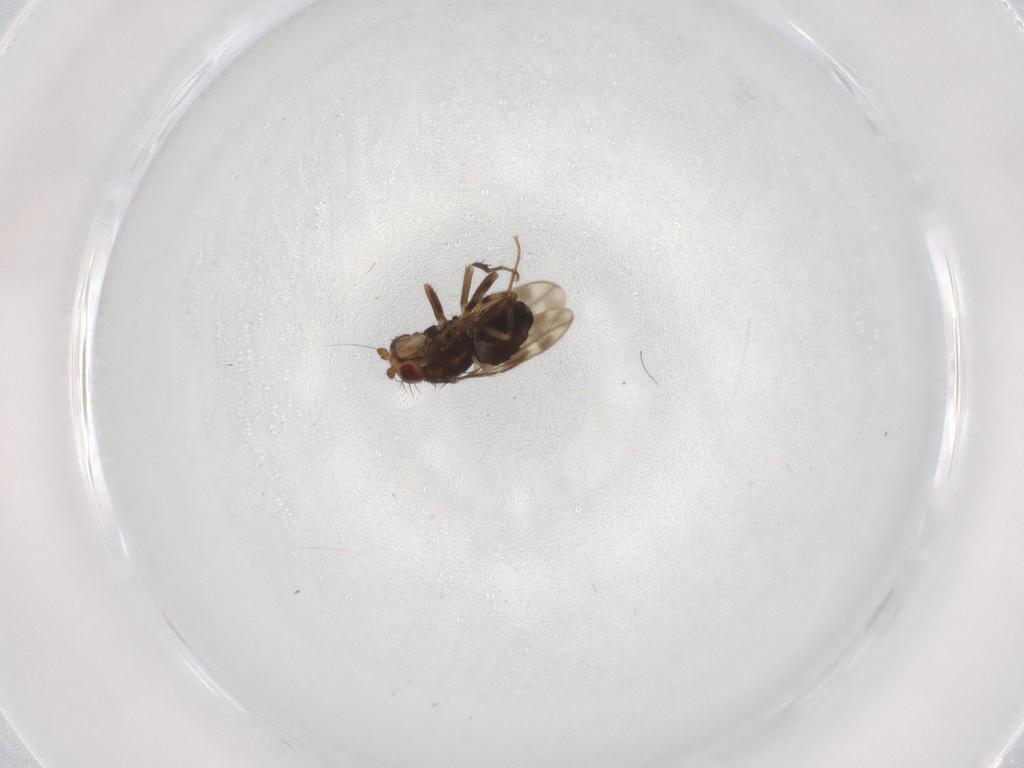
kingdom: Animalia
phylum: Arthropoda
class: Insecta
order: Diptera
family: Sphaeroceridae
